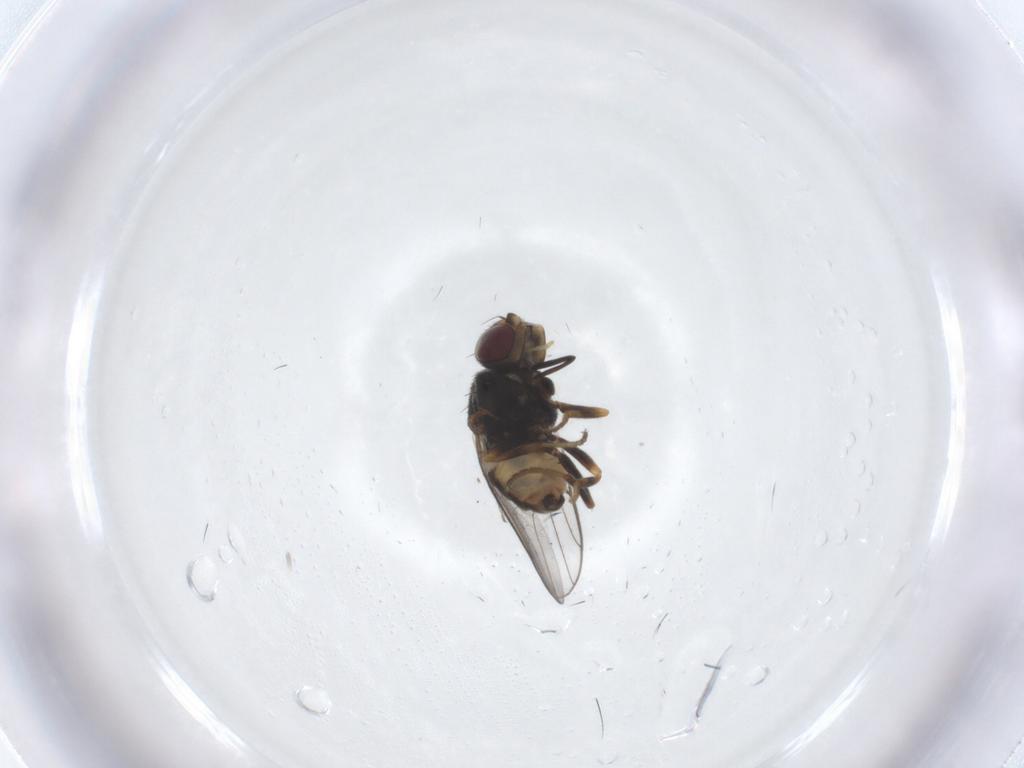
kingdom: Animalia
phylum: Arthropoda
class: Insecta
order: Diptera
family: Chloropidae
